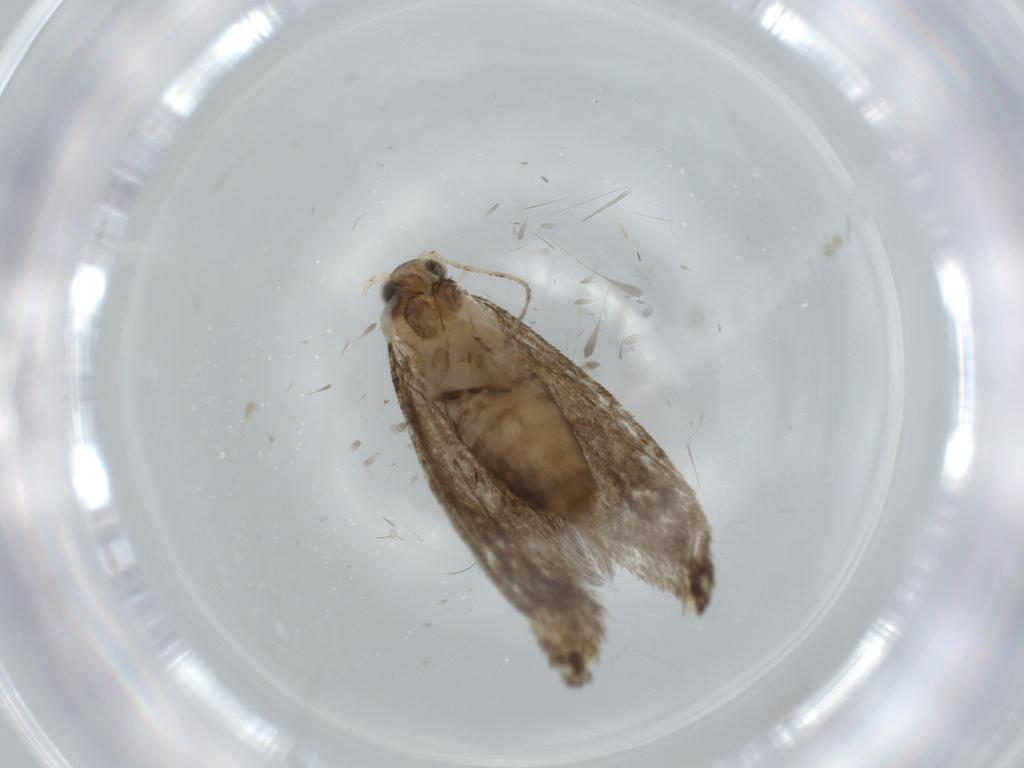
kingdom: Animalia
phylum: Arthropoda
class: Insecta
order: Lepidoptera
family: Tineidae
